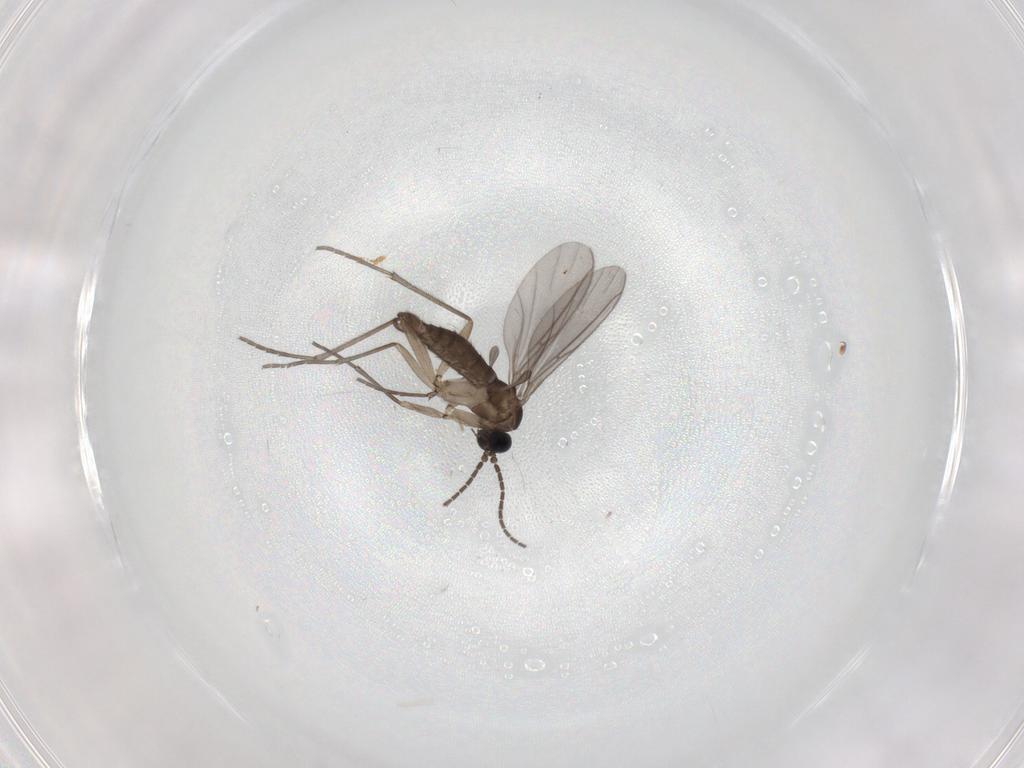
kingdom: Animalia
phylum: Arthropoda
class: Insecta
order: Diptera
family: Sciaridae
